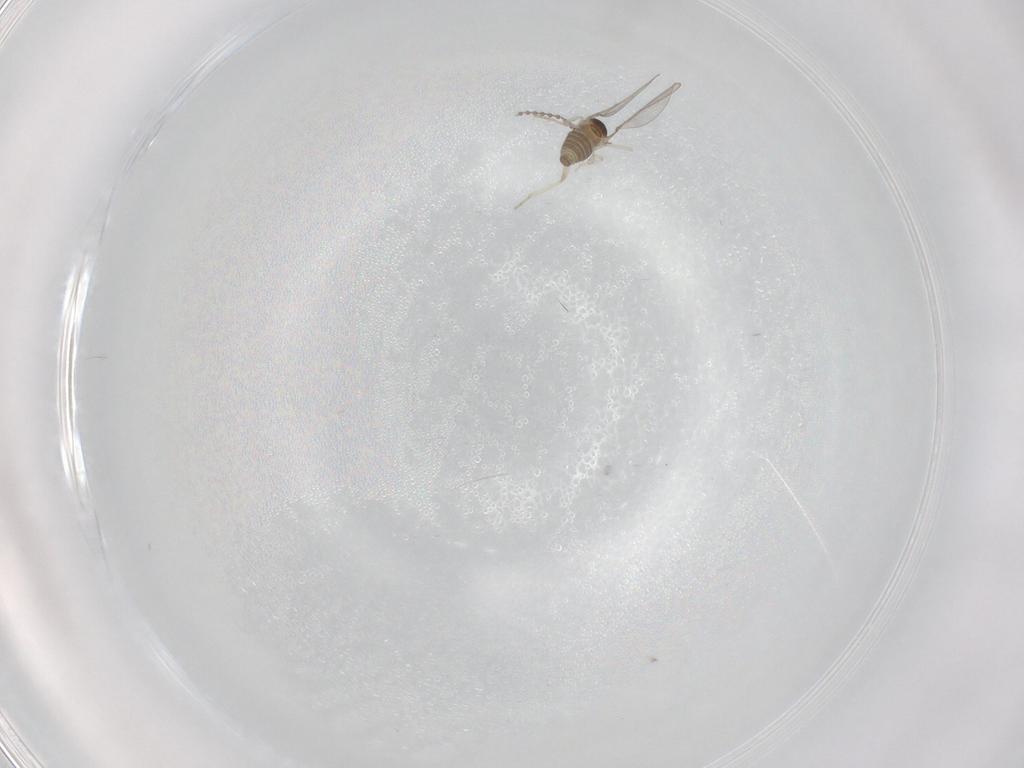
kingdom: Animalia
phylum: Arthropoda
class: Insecta
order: Diptera
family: Cecidomyiidae
